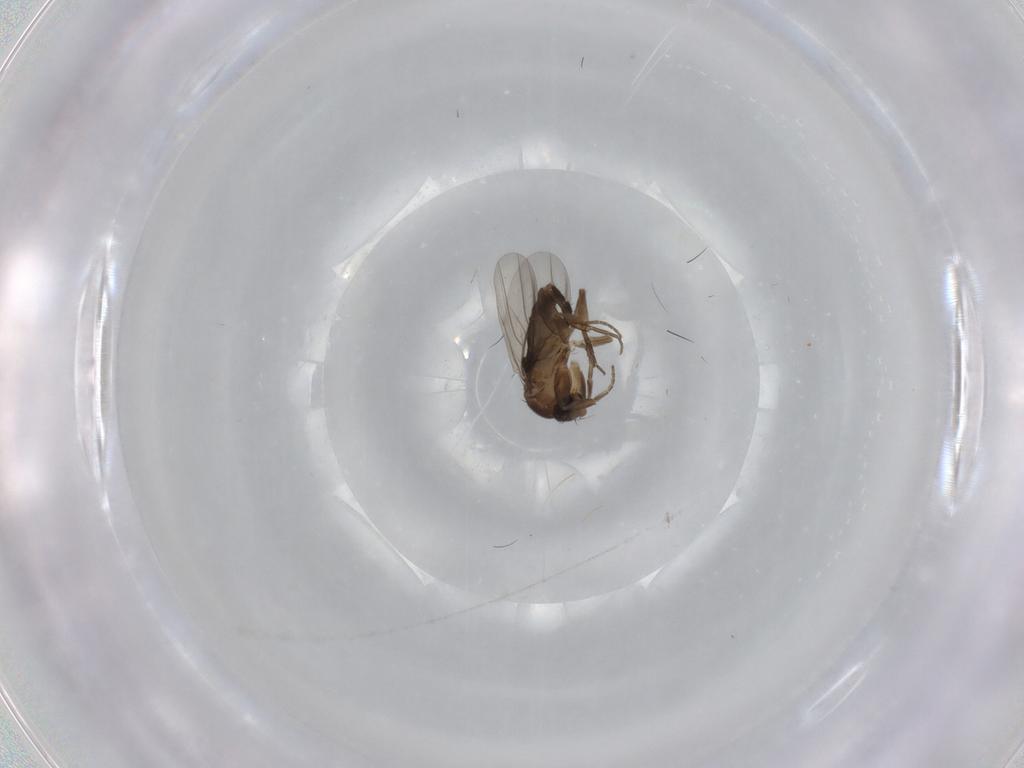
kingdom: Animalia
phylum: Arthropoda
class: Insecta
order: Diptera
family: Phoridae
